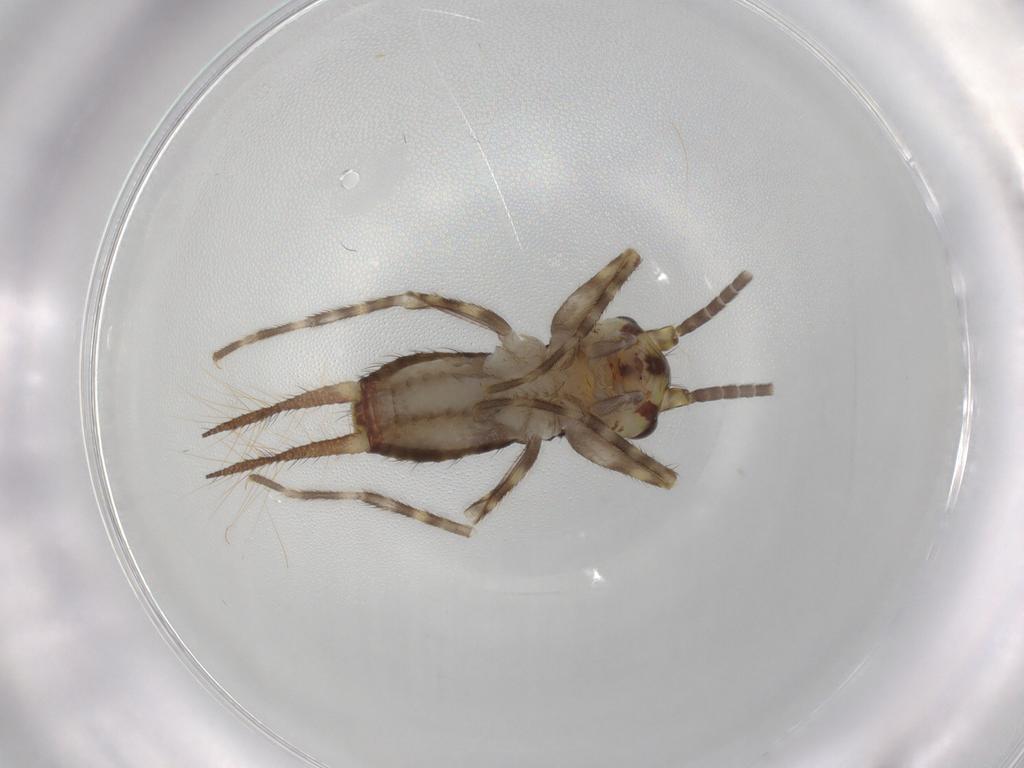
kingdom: Animalia
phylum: Arthropoda
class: Insecta
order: Orthoptera
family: Gryllidae
